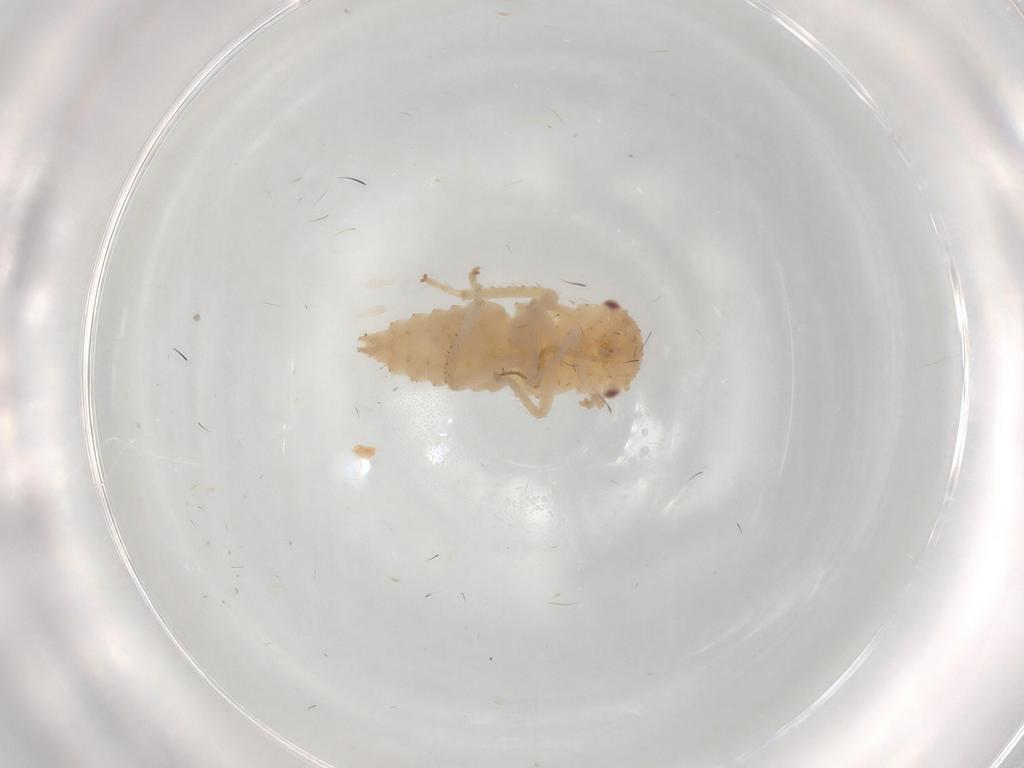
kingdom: Animalia
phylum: Arthropoda
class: Insecta
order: Hemiptera
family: Cicadellidae
